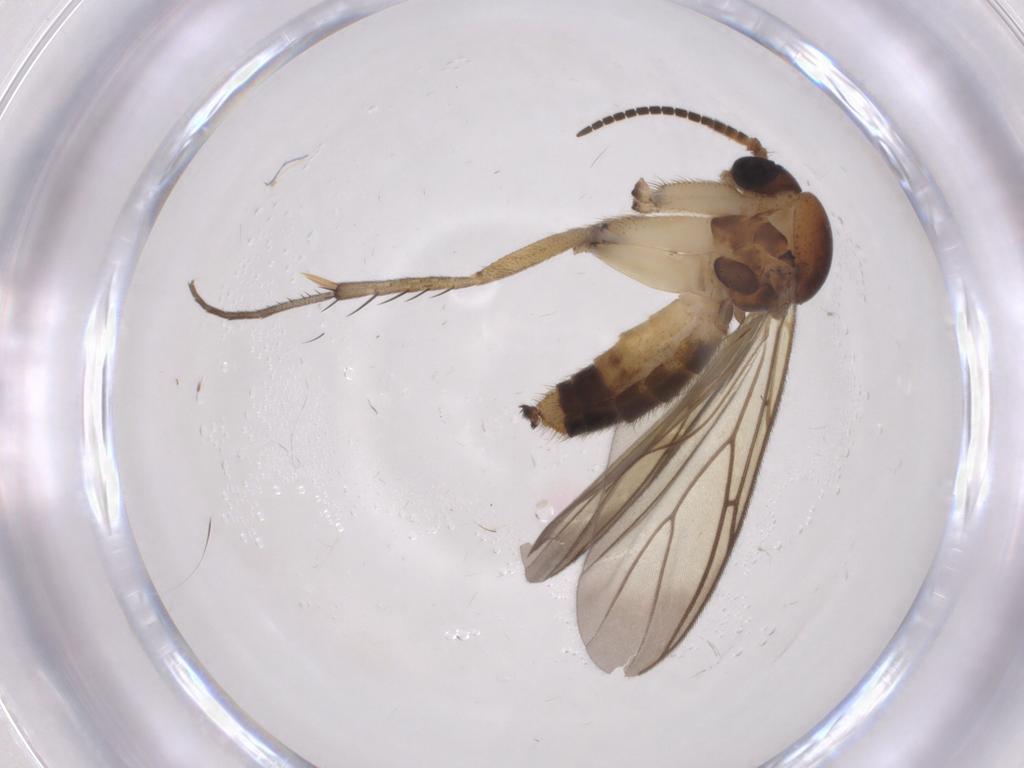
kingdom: Animalia
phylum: Arthropoda
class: Insecta
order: Diptera
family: Mycetophilidae
